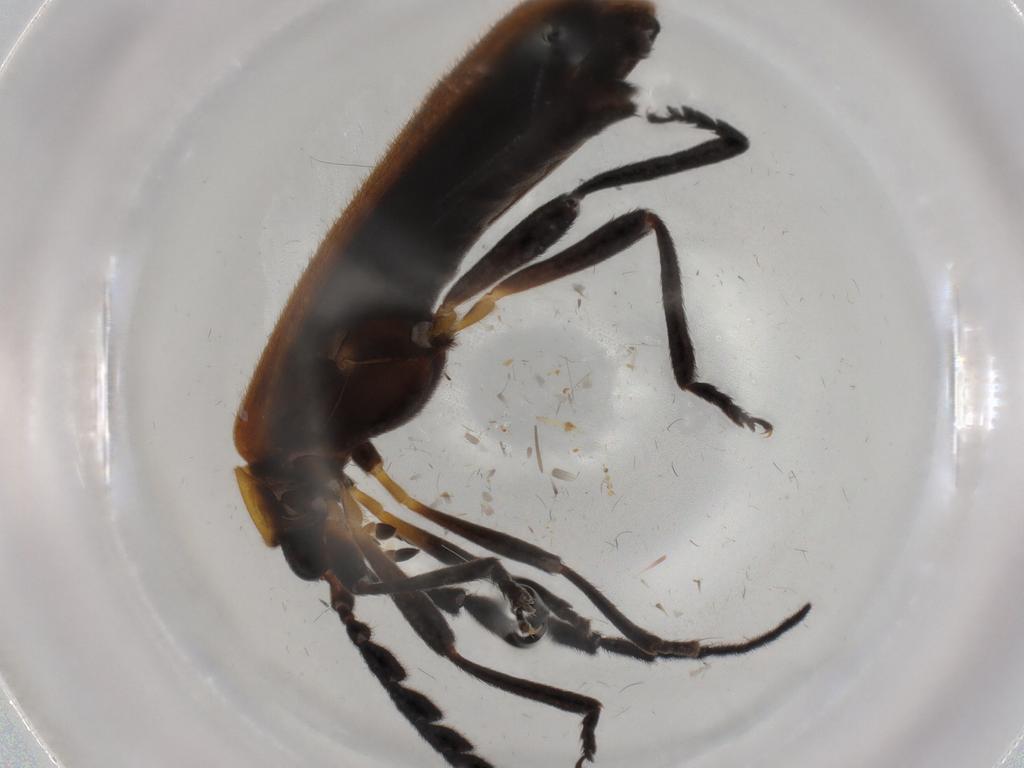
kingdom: Animalia
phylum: Arthropoda
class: Insecta
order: Coleoptera
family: Lycidae
